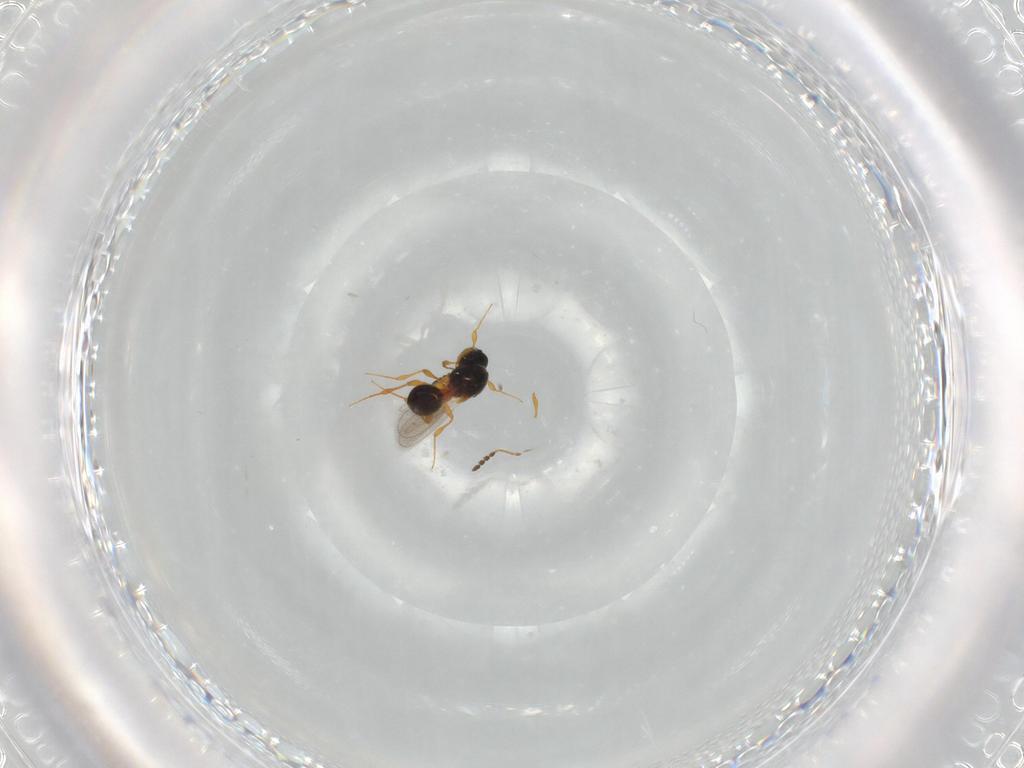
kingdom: Animalia
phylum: Arthropoda
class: Insecta
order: Hymenoptera
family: Platygastridae
